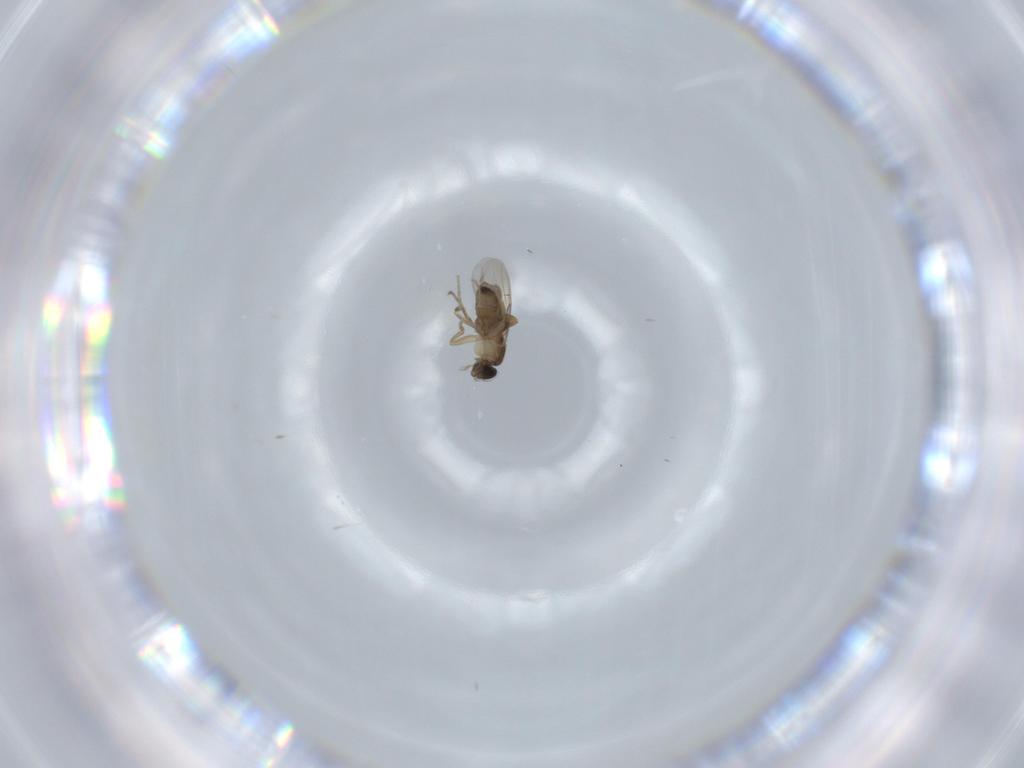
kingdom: Animalia
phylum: Arthropoda
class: Insecta
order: Diptera
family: Phoridae
